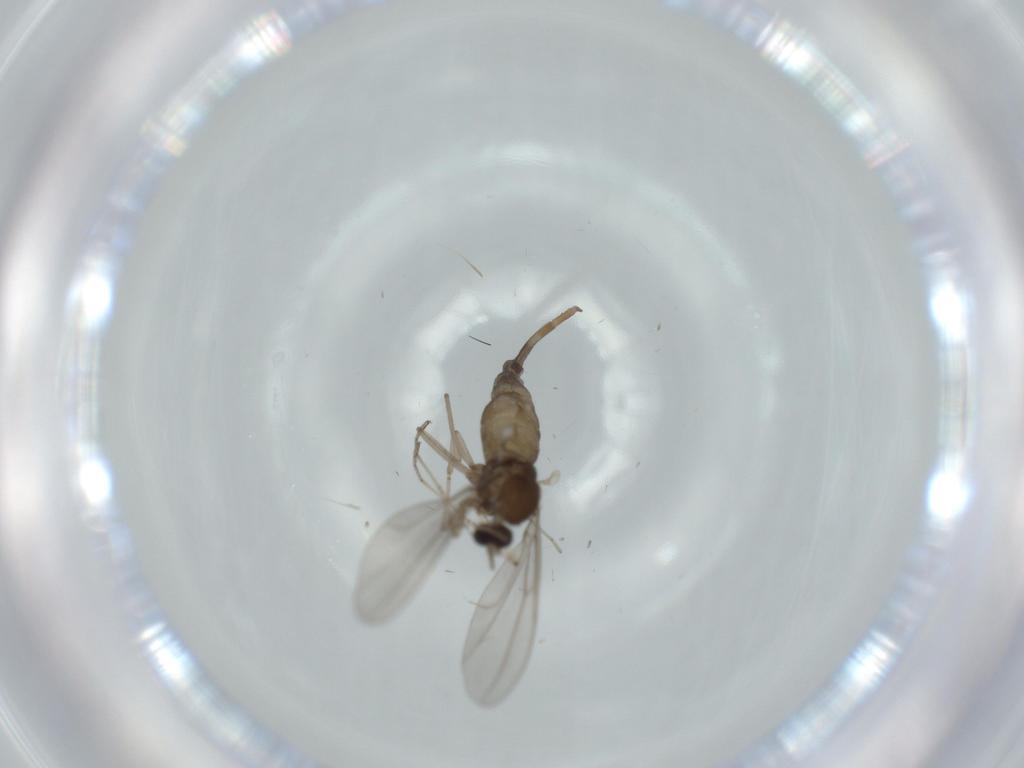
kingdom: Animalia
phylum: Arthropoda
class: Insecta
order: Diptera
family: Cecidomyiidae
